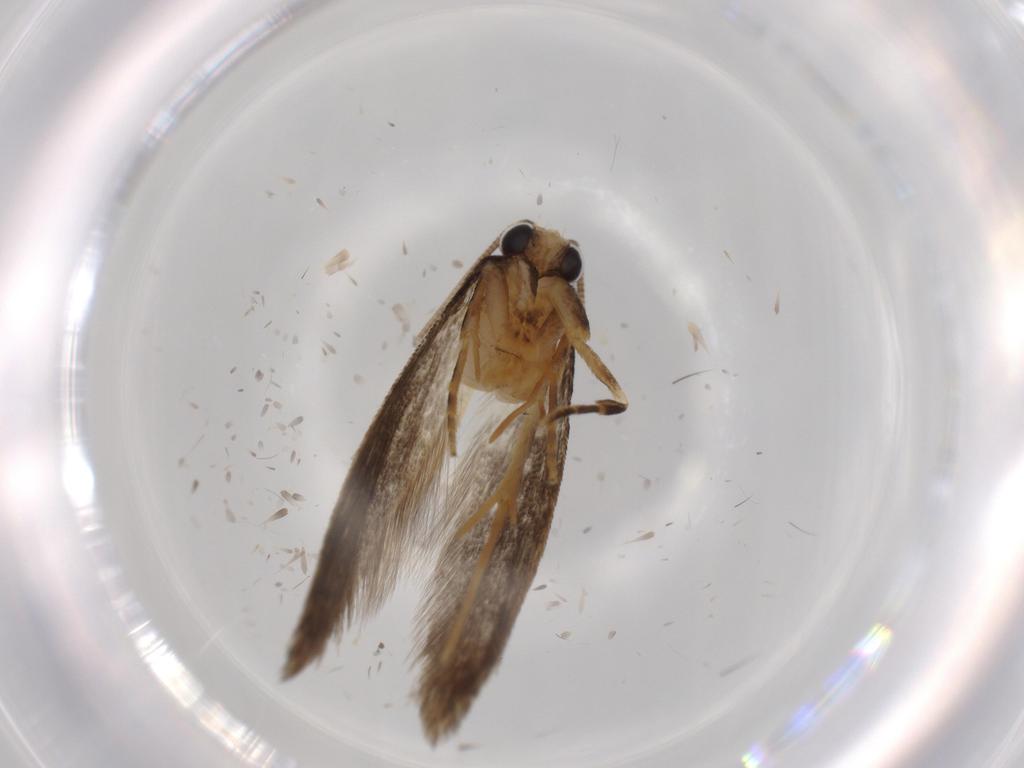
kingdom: Animalia
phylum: Arthropoda
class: Insecta
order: Lepidoptera
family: Tineidae
